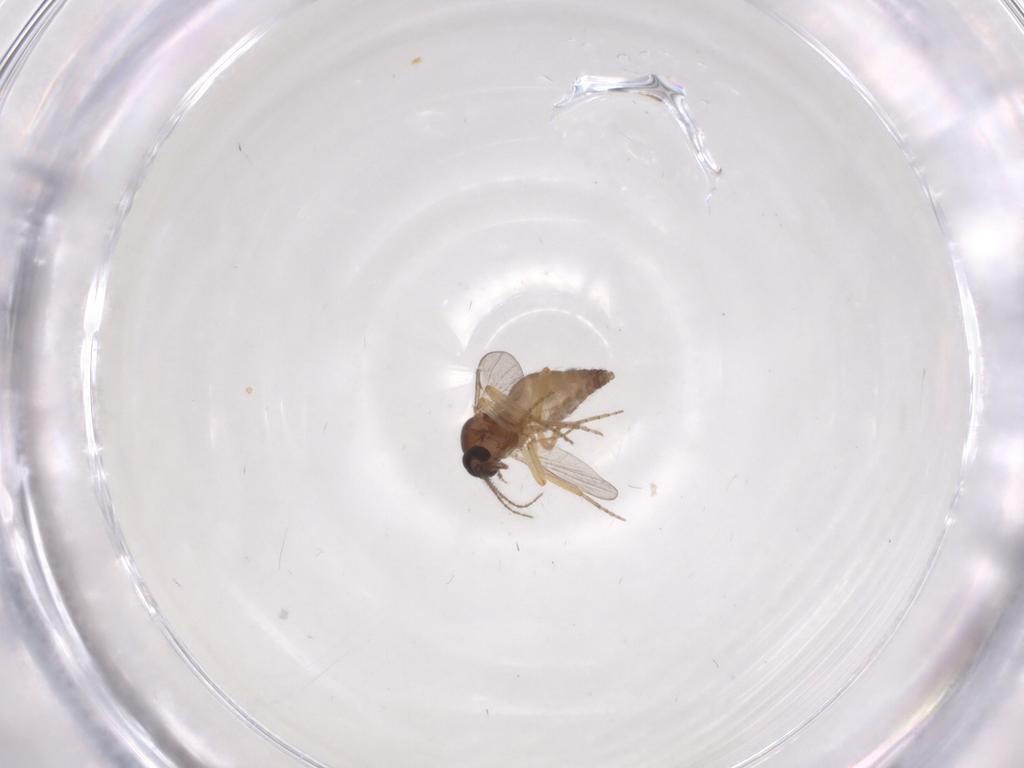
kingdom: Animalia
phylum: Arthropoda
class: Insecta
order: Diptera
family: Ceratopogonidae
